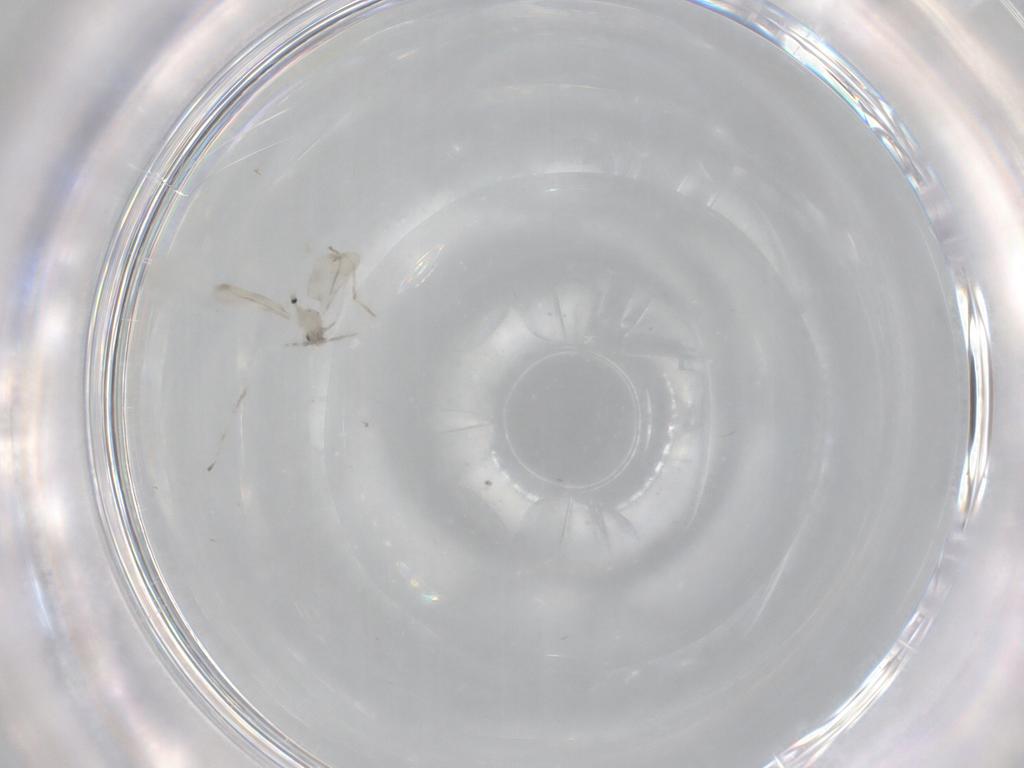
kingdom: Animalia
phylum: Arthropoda
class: Insecta
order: Diptera
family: Cecidomyiidae
